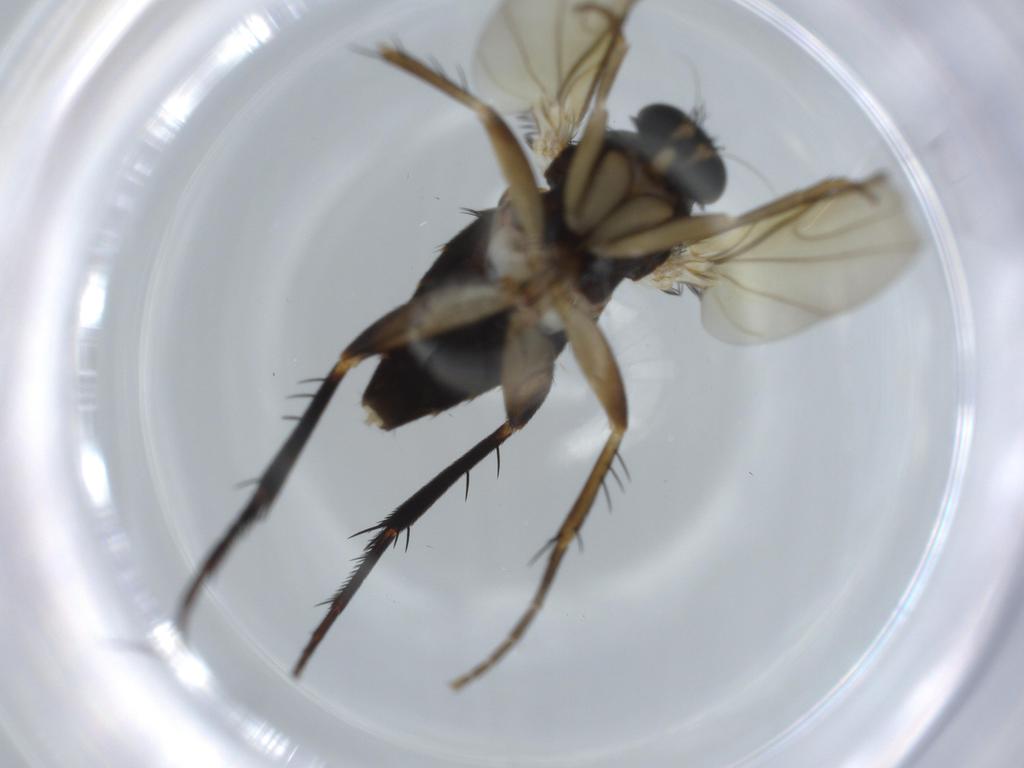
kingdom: Animalia
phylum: Arthropoda
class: Insecta
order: Diptera
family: Phoridae
